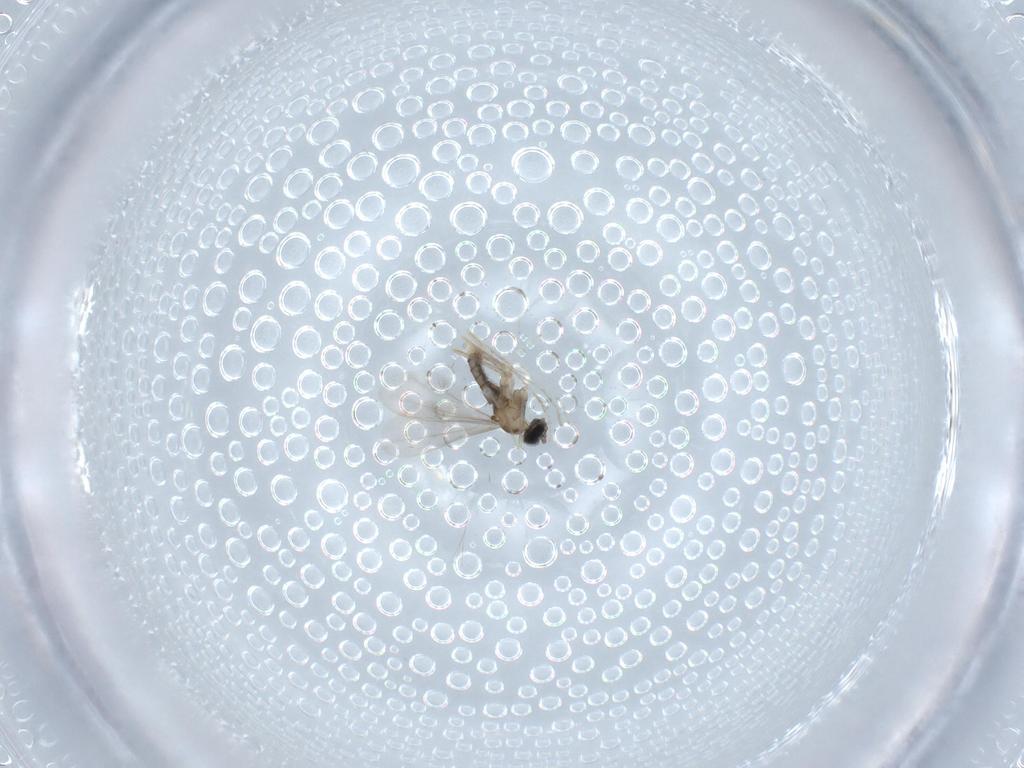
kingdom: Animalia
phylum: Arthropoda
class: Insecta
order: Diptera
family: Cecidomyiidae
